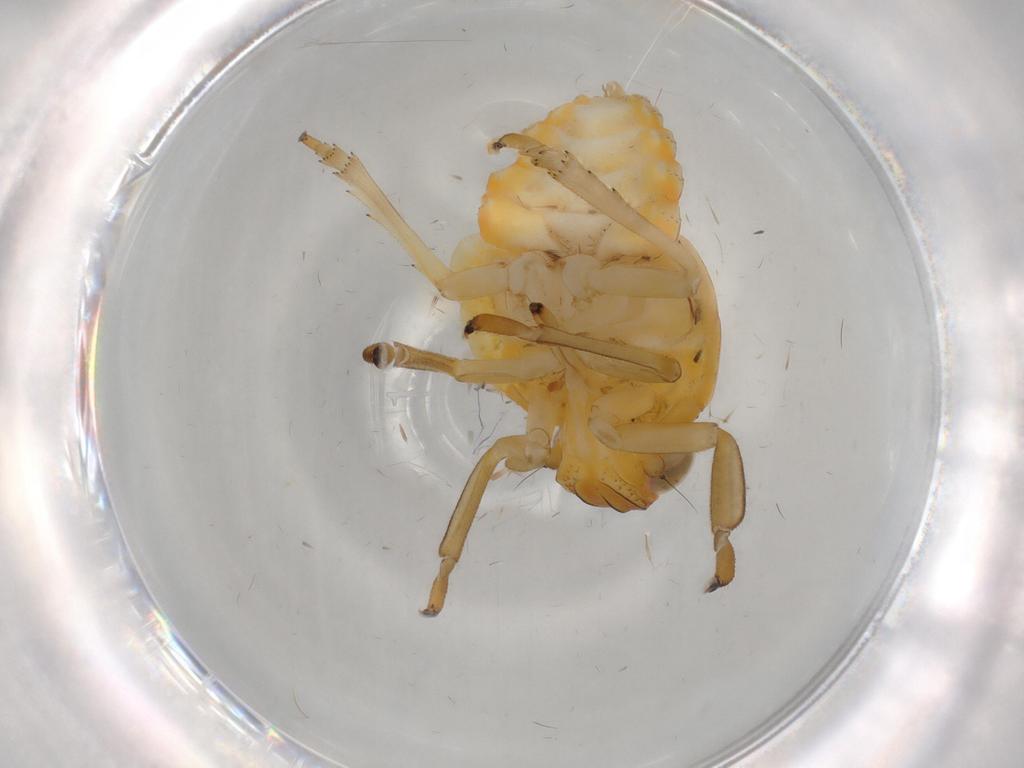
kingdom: Animalia
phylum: Arthropoda
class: Insecta
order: Hemiptera
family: Issidae
